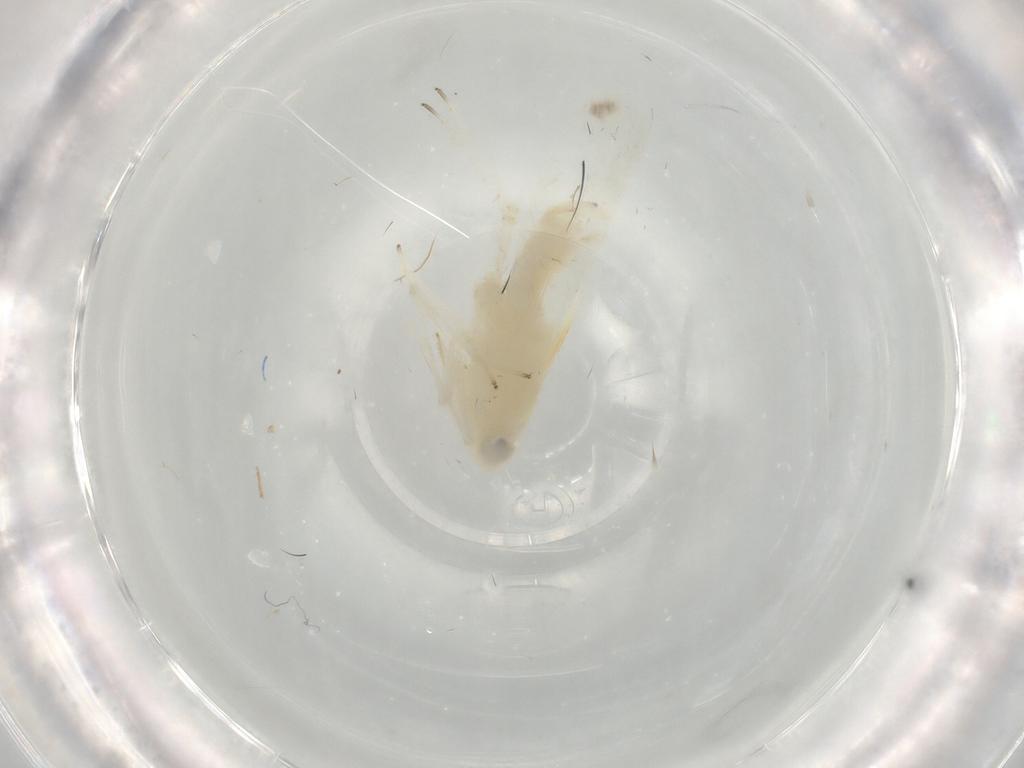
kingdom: Animalia
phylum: Arthropoda
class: Insecta
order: Hemiptera
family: Cicadellidae
